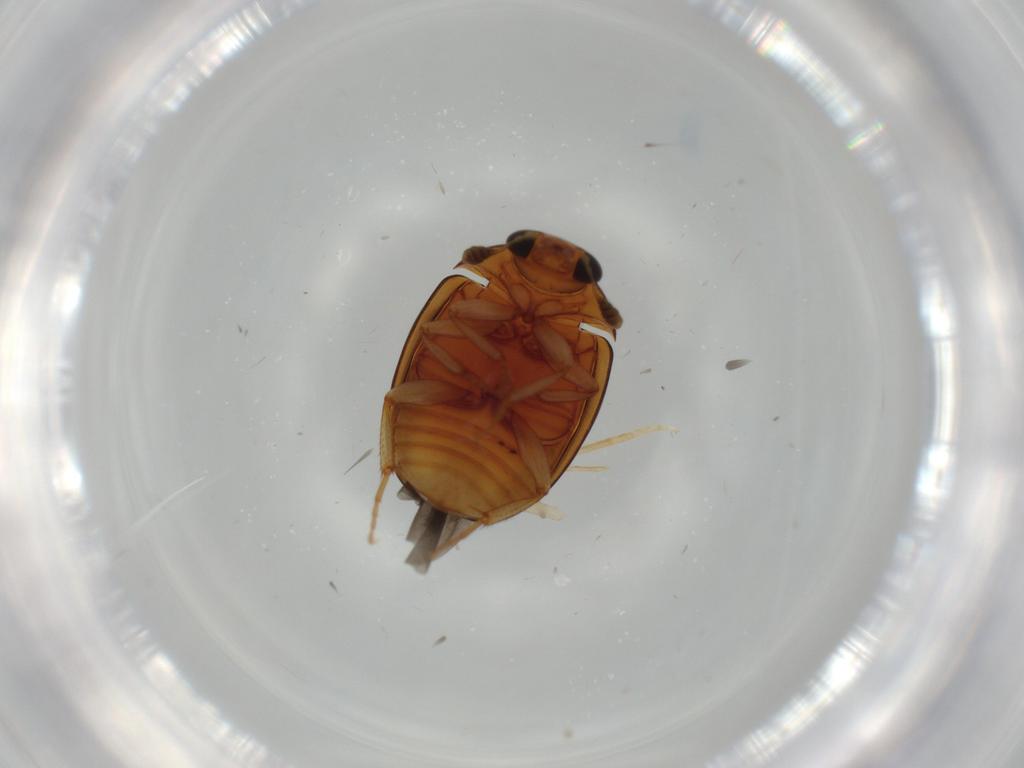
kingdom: Animalia
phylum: Arthropoda
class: Insecta
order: Coleoptera
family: Nitidulidae
